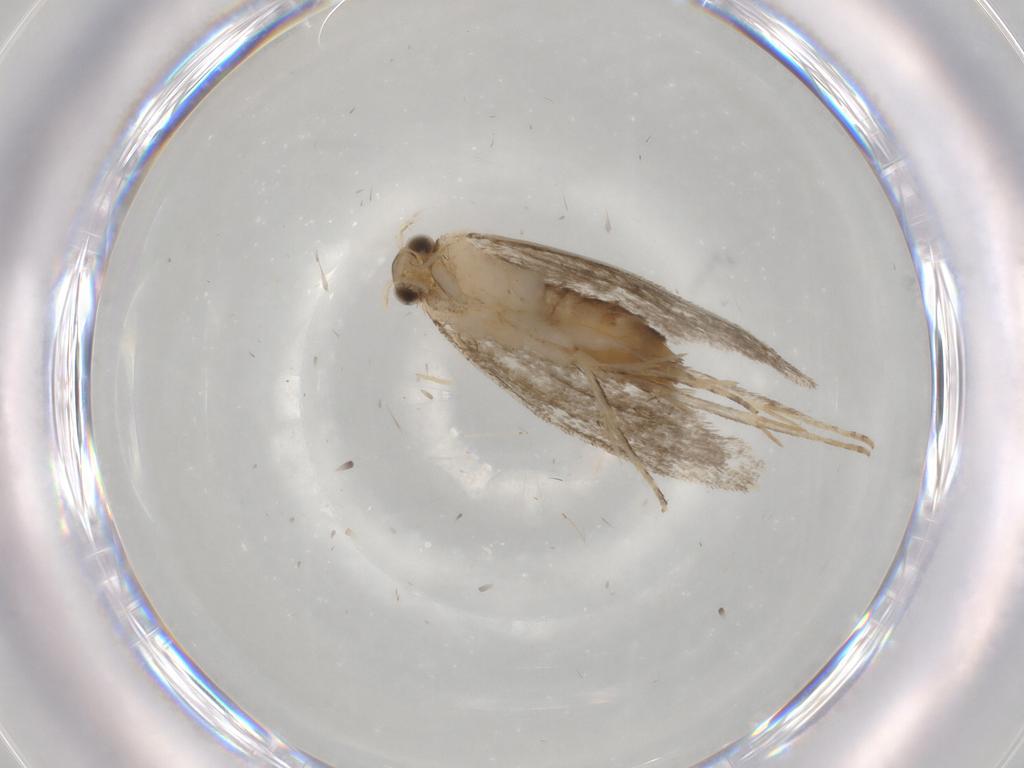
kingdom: Animalia
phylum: Arthropoda
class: Insecta
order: Lepidoptera
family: Tineidae
